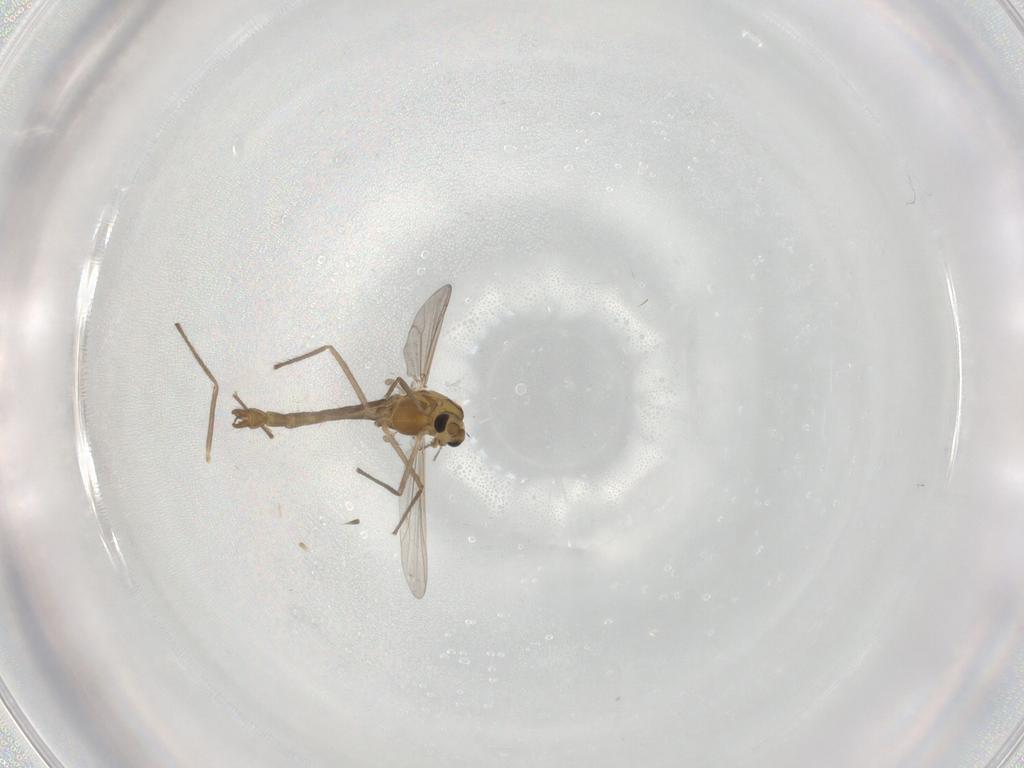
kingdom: Animalia
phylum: Arthropoda
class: Insecta
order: Diptera
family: Chironomidae
